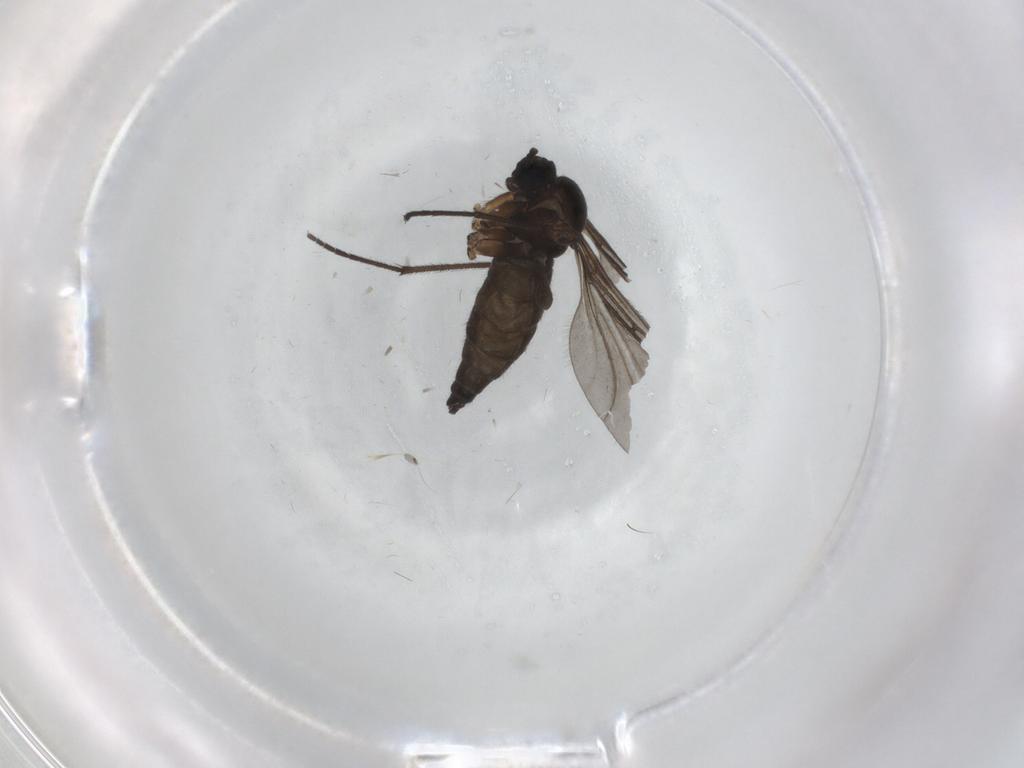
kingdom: Animalia
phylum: Arthropoda
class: Insecta
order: Diptera
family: Sciaridae
